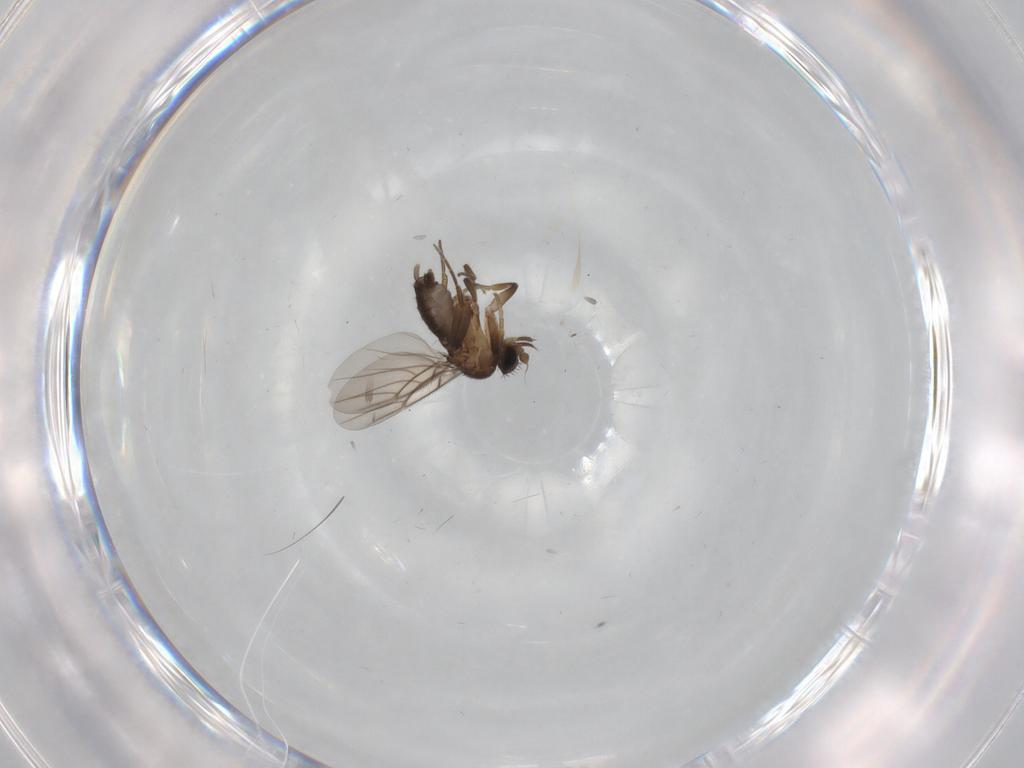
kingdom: Animalia
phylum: Arthropoda
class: Insecta
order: Diptera
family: Phoridae
